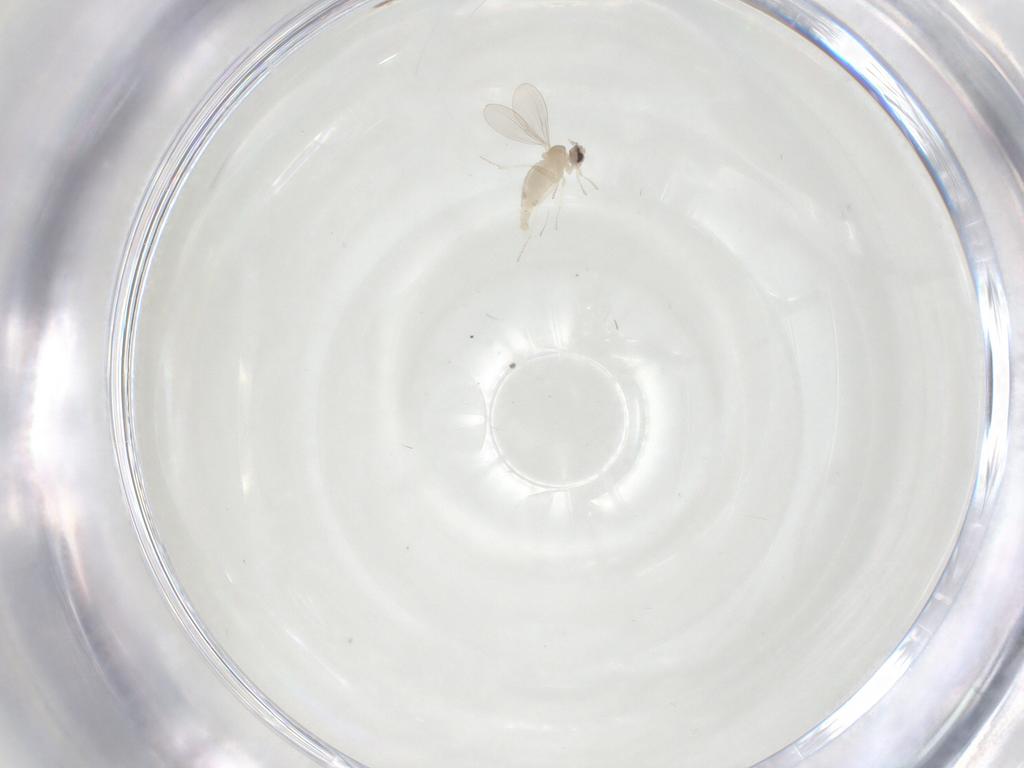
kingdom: Animalia
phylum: Arthropoda
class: Insecta
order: Diptera
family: Cecidomyiidae
